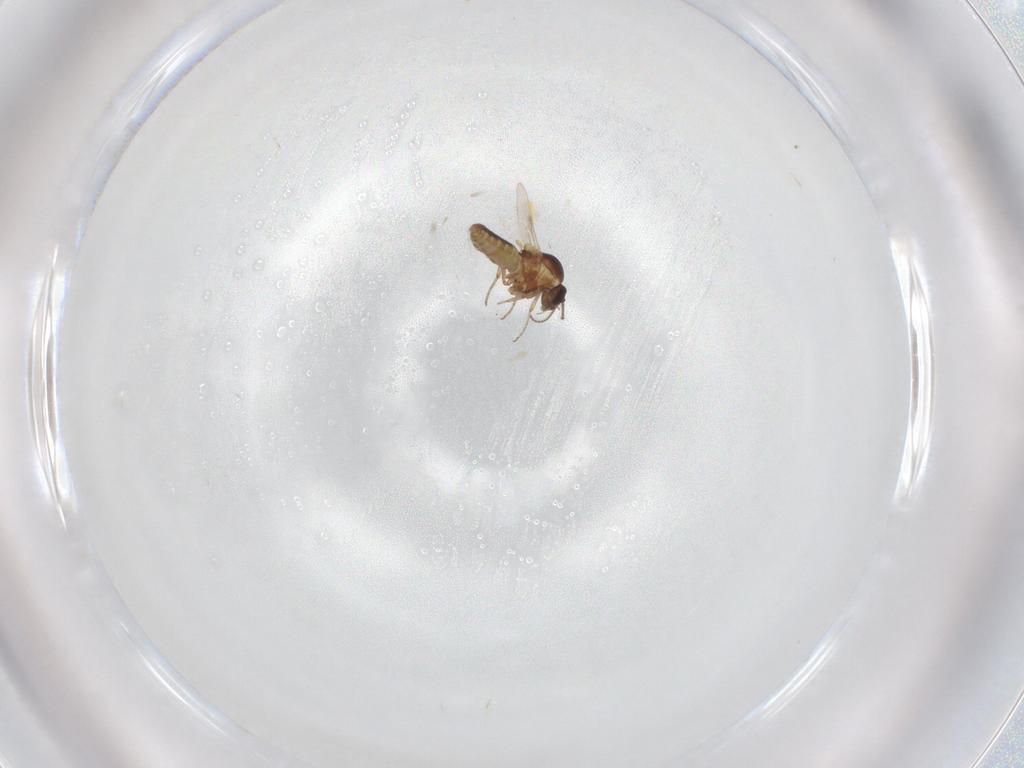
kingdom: Animalia
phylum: Arthropoda
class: Insecta
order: Diptera
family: Ceratopogonidae
